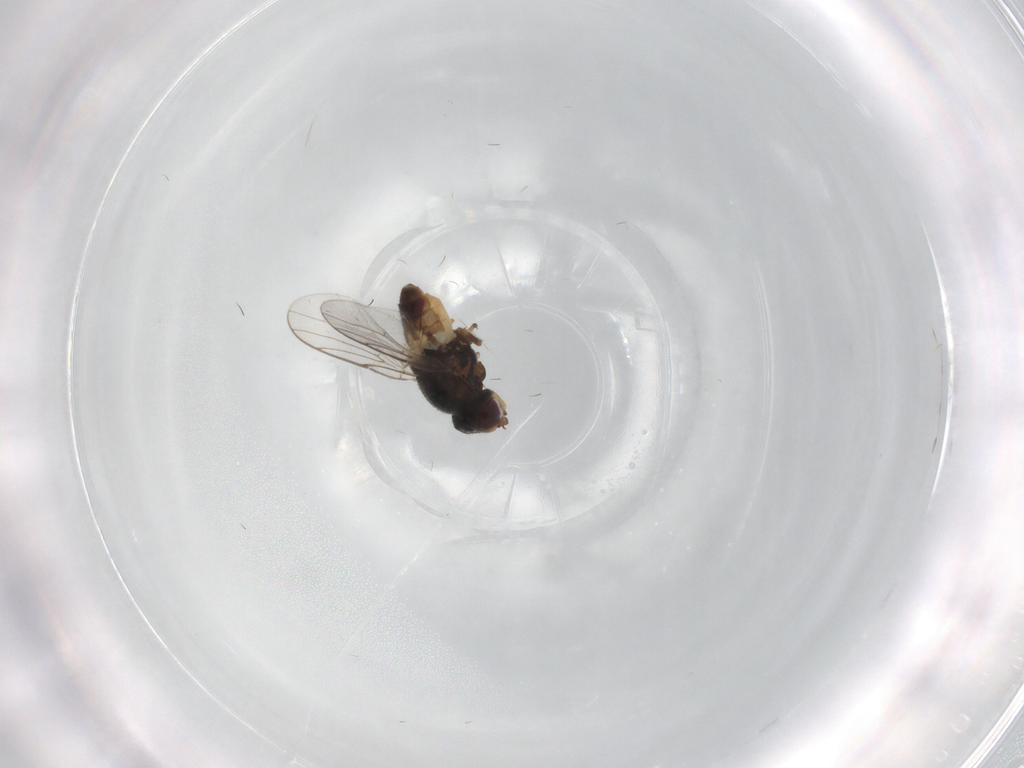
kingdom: Animalia
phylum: Arthropoda
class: Insecta
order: Diptera
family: Chloropidae
